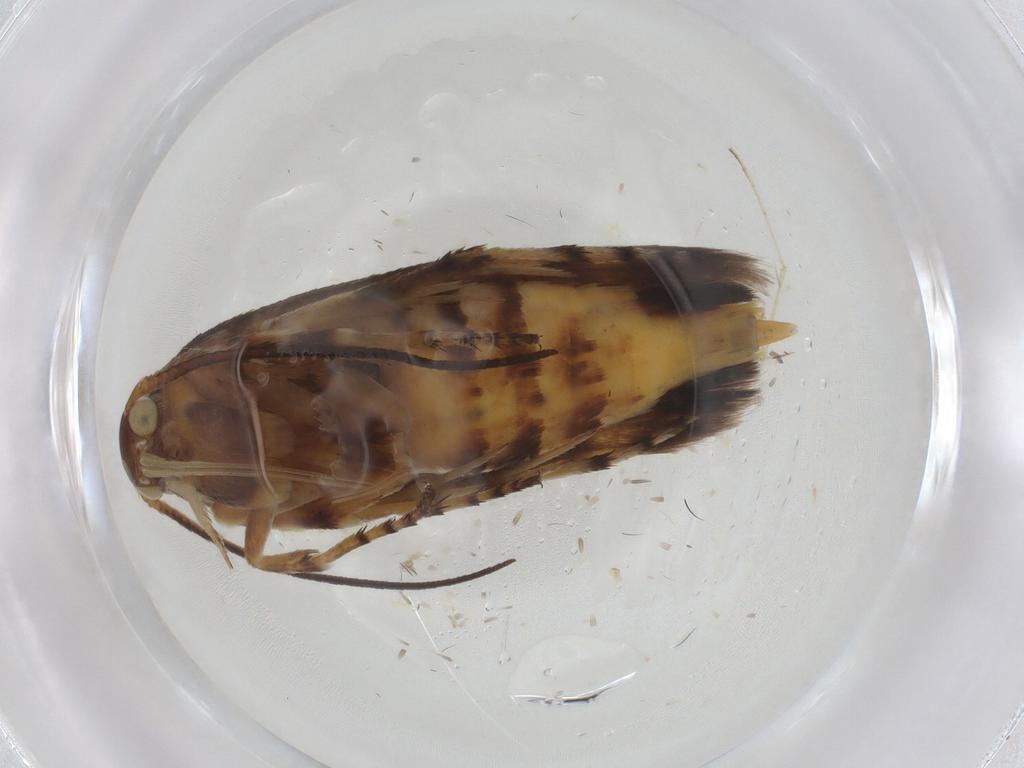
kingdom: Animalia
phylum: Arthropoda
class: Insecta
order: Lepidoptera
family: Scythrididae
